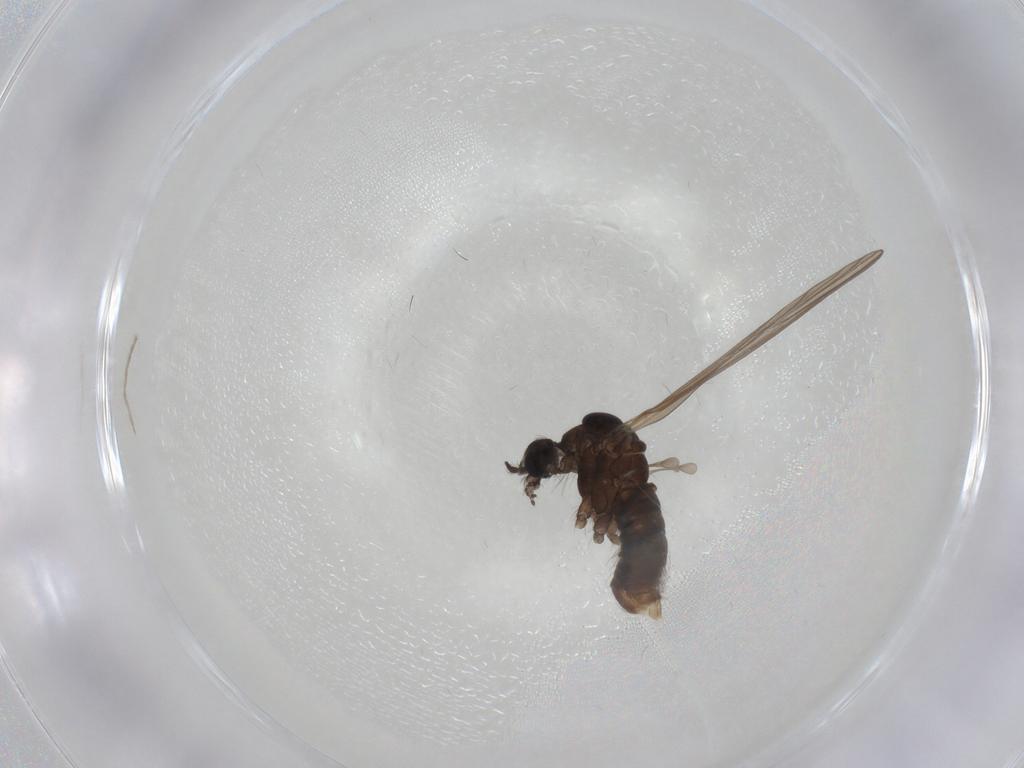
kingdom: Animalia
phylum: Arthropoda
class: Insecta
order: Diptera
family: Limoniidae
